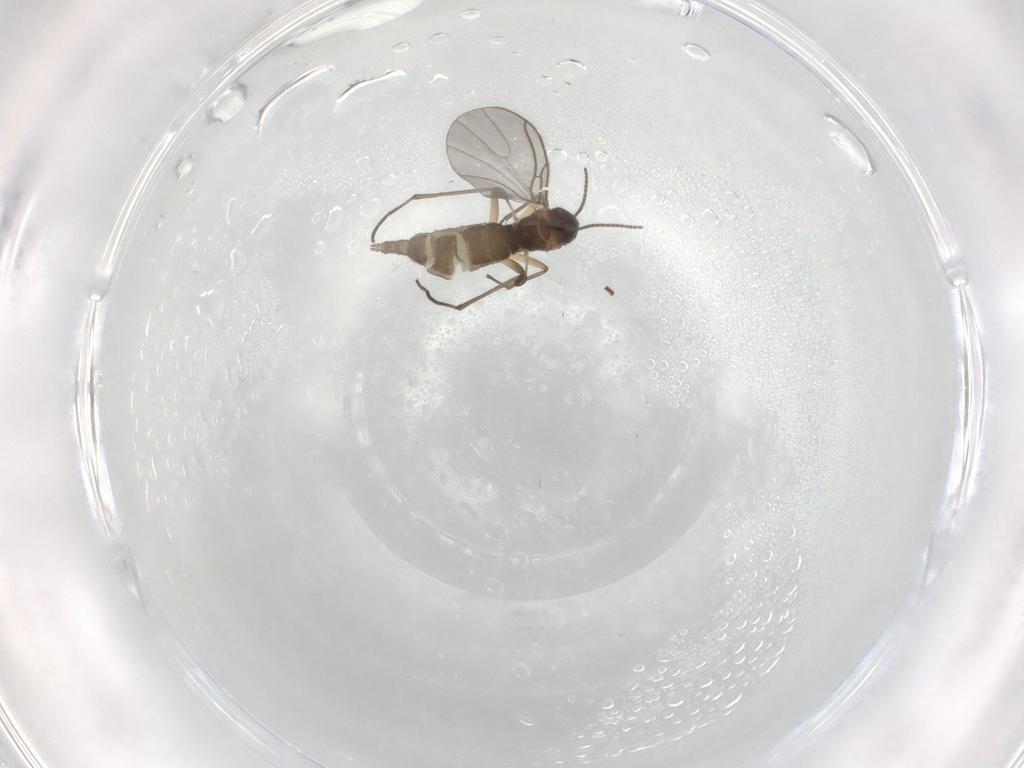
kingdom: Animalia
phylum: Arthropoda
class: Insecta
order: Diptera
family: Sciaridae
